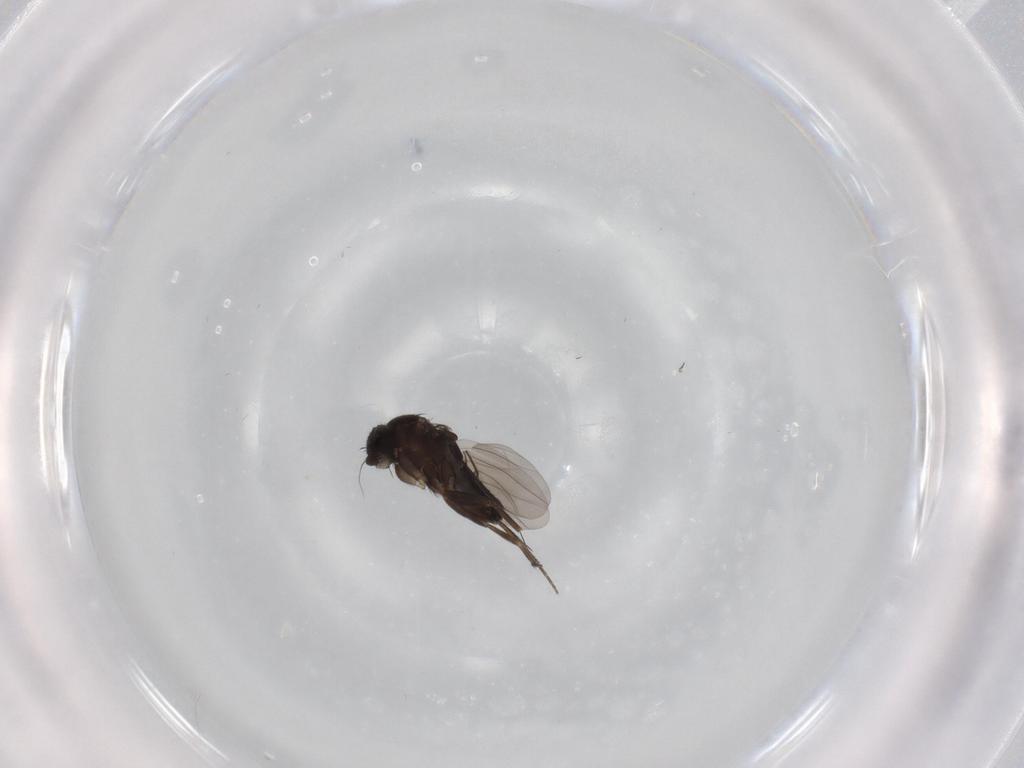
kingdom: Animalia
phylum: Arthropoda
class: Insecta
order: Diptera
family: Phoridae
